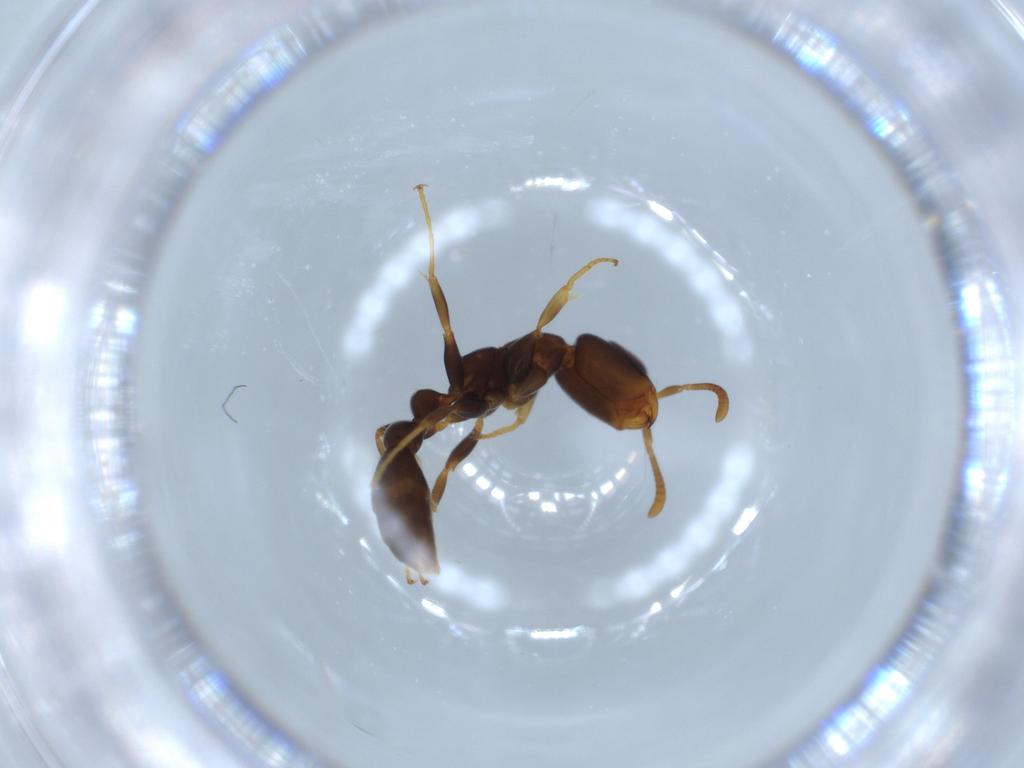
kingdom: Animalia
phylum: Arthropoda
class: Insecta
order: Hymenoptera
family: Formicidae
